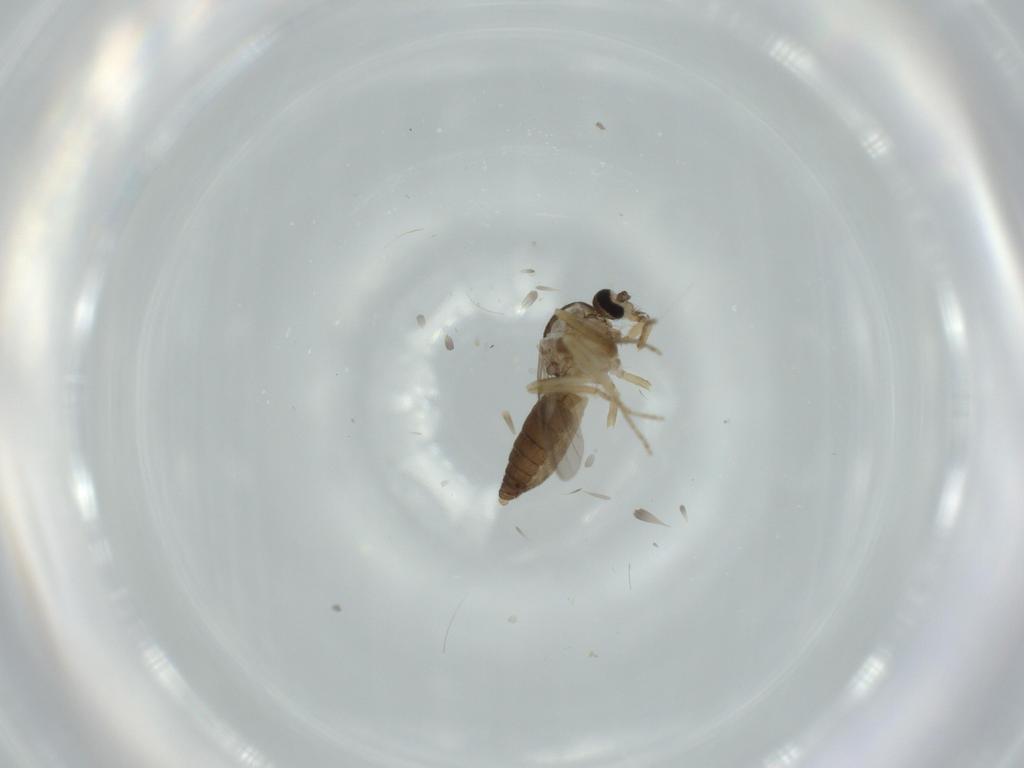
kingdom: Animalia
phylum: Arthropoda
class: Insecta
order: Diptera
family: Ceratopogonidae
